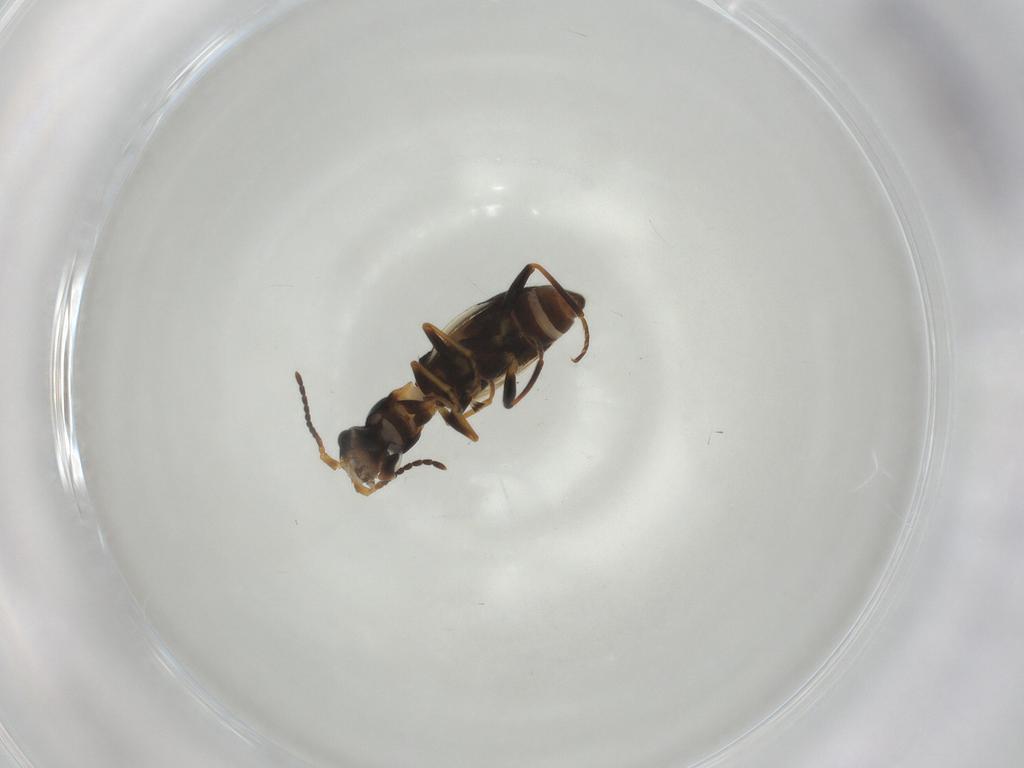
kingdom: Animalia
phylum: Arthropoda
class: Insecta
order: Coleoptera
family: Melyridae
